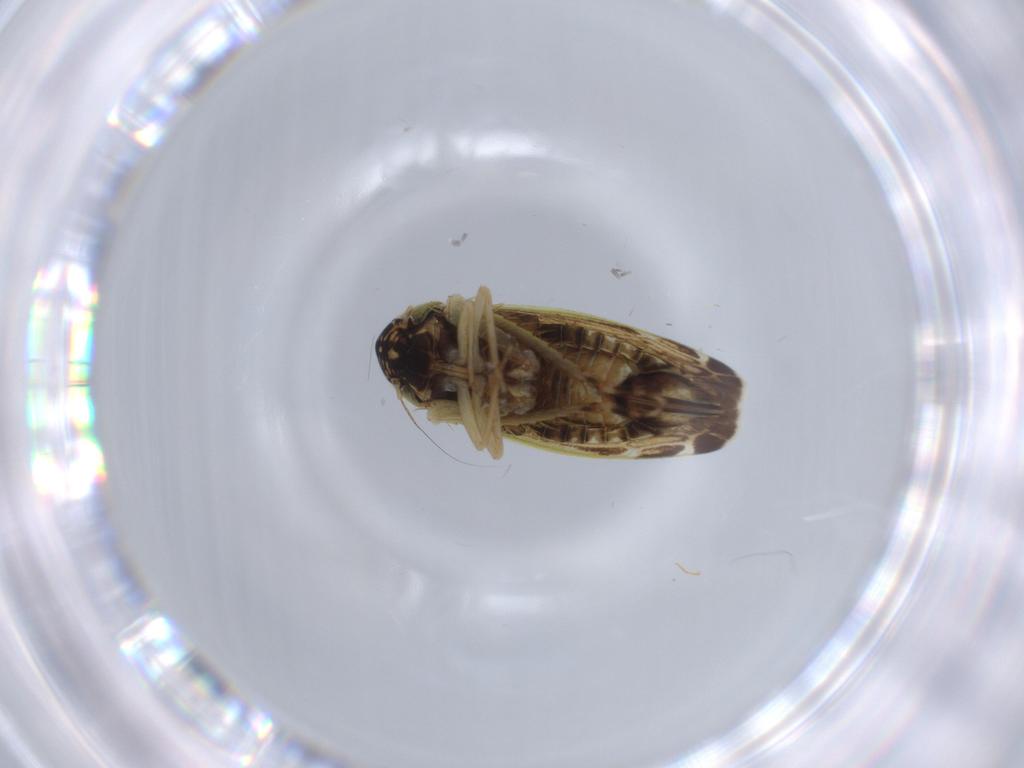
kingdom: Animalia
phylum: Arthropoda
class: Insecta
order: Hemiptera
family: Cicadellidae
